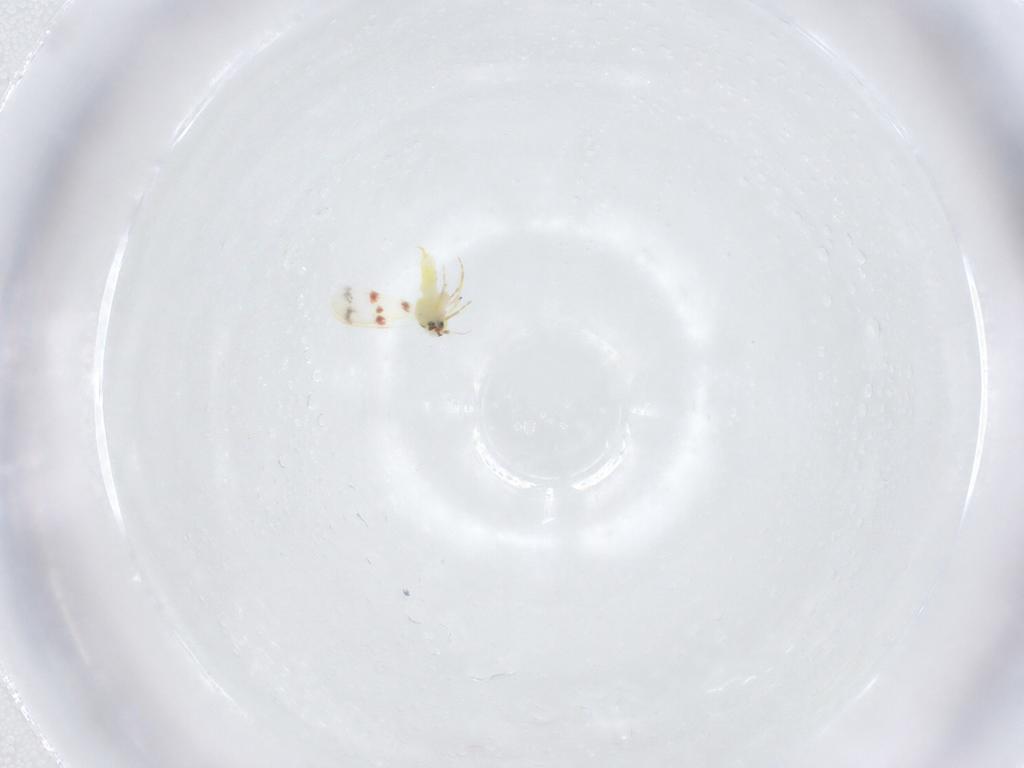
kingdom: Animalia
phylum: Arthropoda
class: Insecta
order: Hemiptera
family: Aleyrodidae
